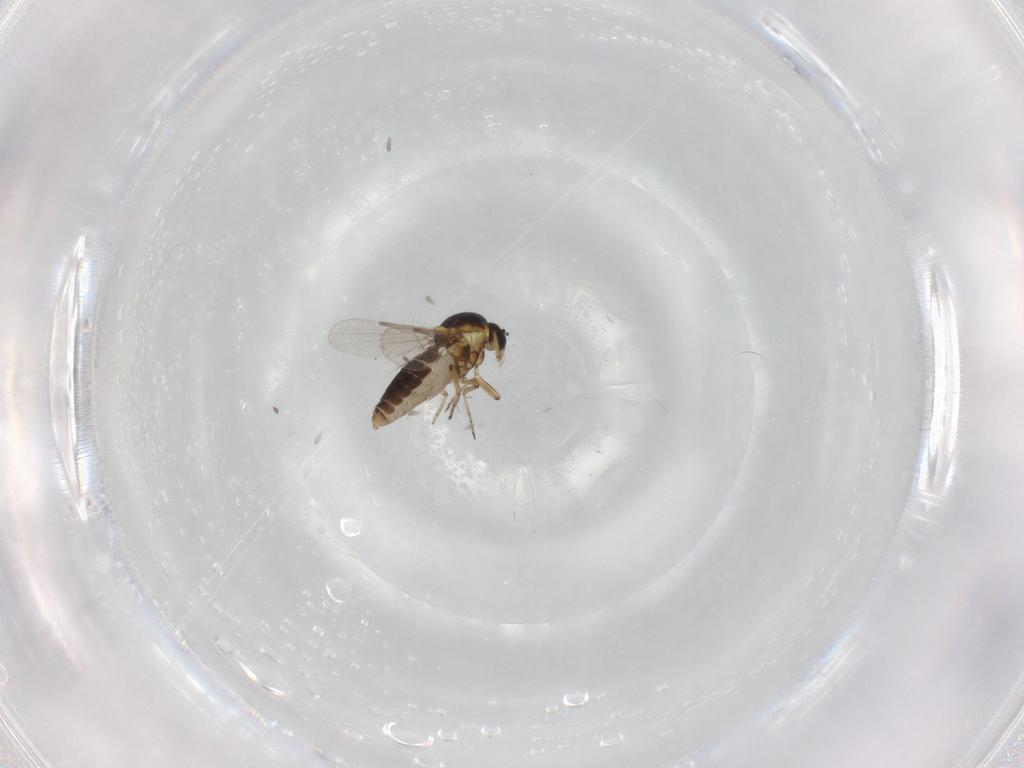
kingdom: Animalia
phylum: Arthropoda
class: Insecta
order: Diptera
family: Ceratopogonidae
